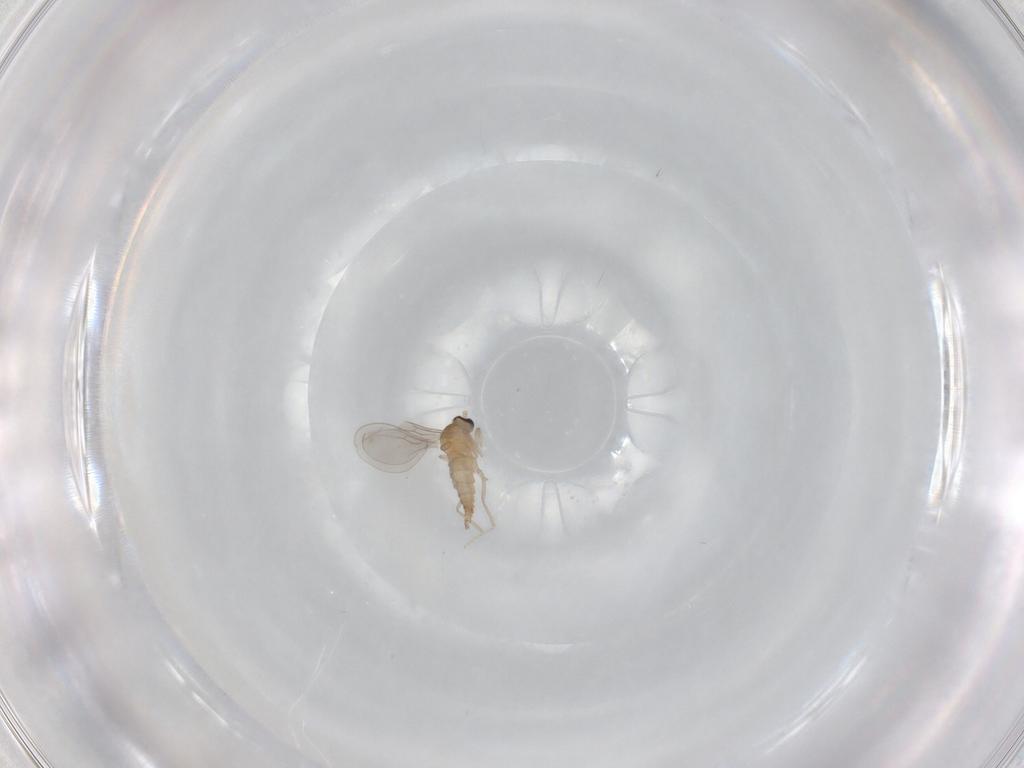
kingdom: Animalia
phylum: Arthropoda
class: Insecta
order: Diptera
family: Cecidomyiidae
